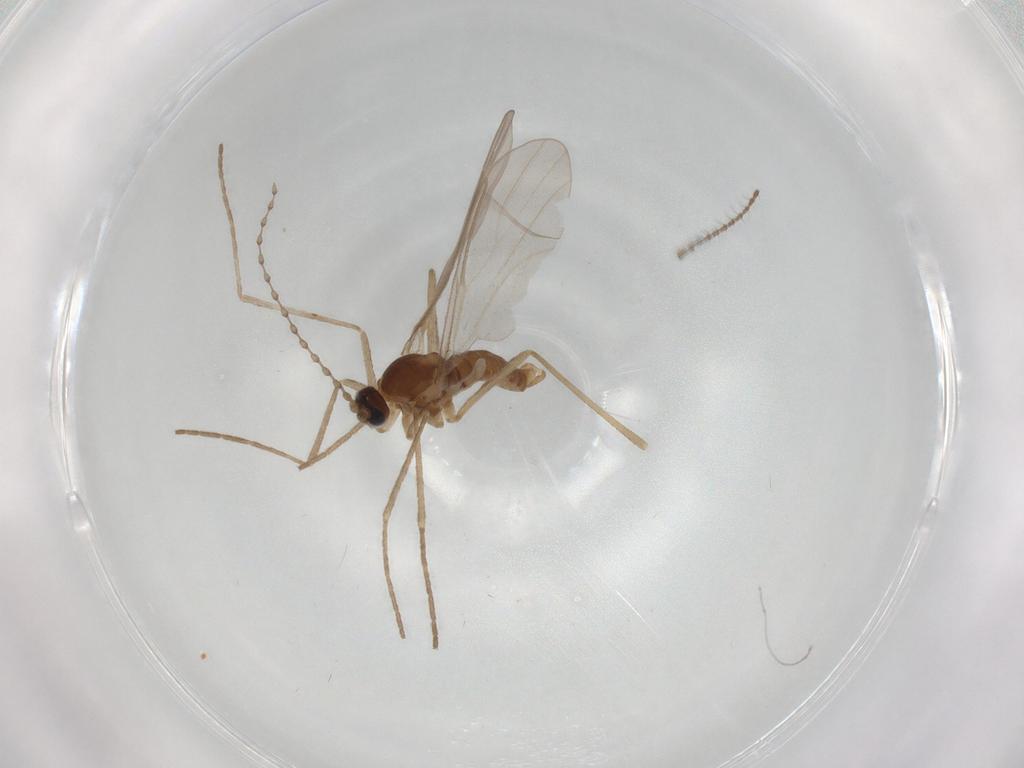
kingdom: Animalia
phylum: Arthropoda
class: Insecta
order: Diptera
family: Cecidomyiidae
